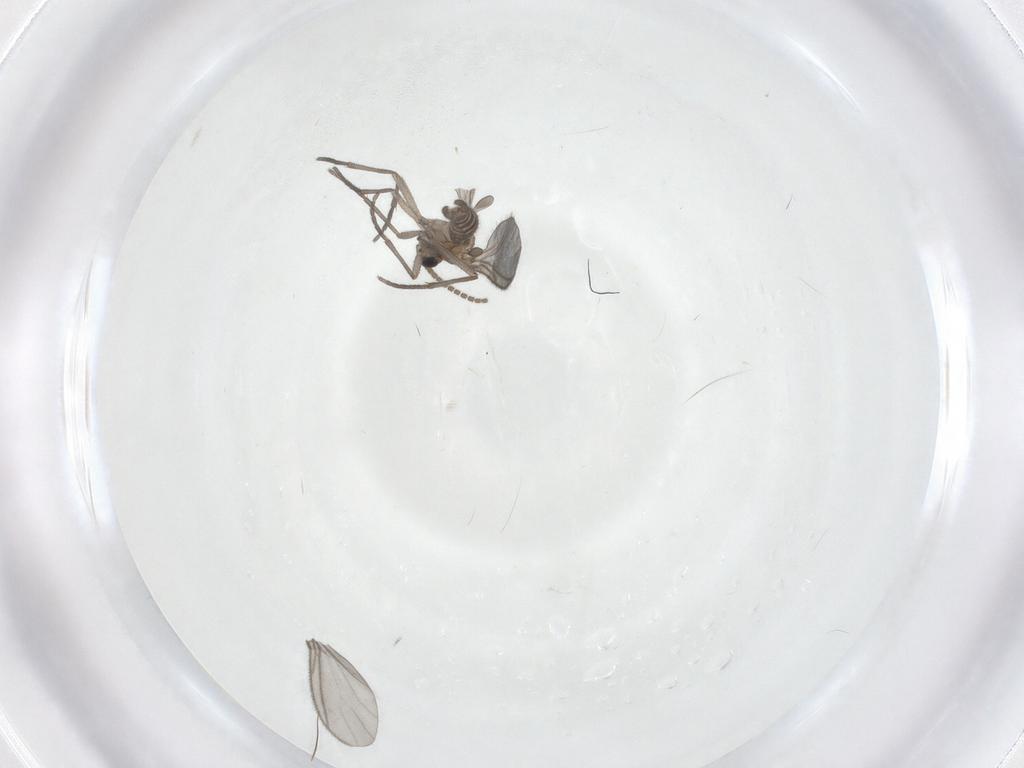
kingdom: Animalia
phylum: Arthropoda
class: Insecta
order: Diptera
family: Sciaridae
